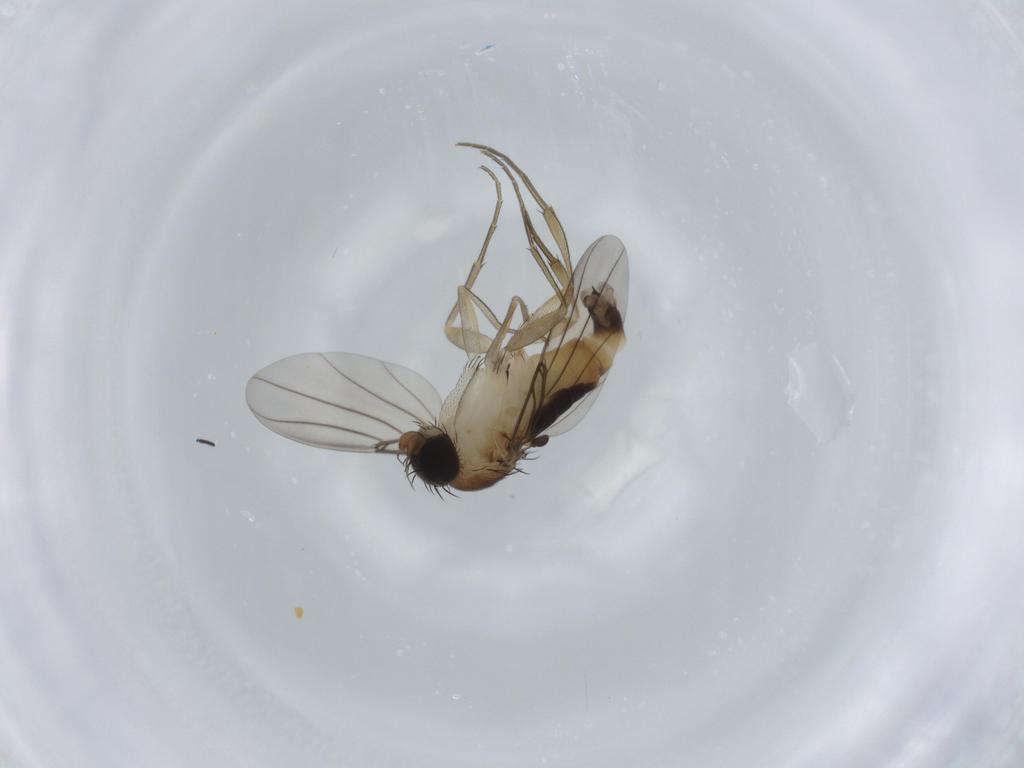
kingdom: Animalia
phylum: Arthropoda
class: Insecta
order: Diptera
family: Phoridae
